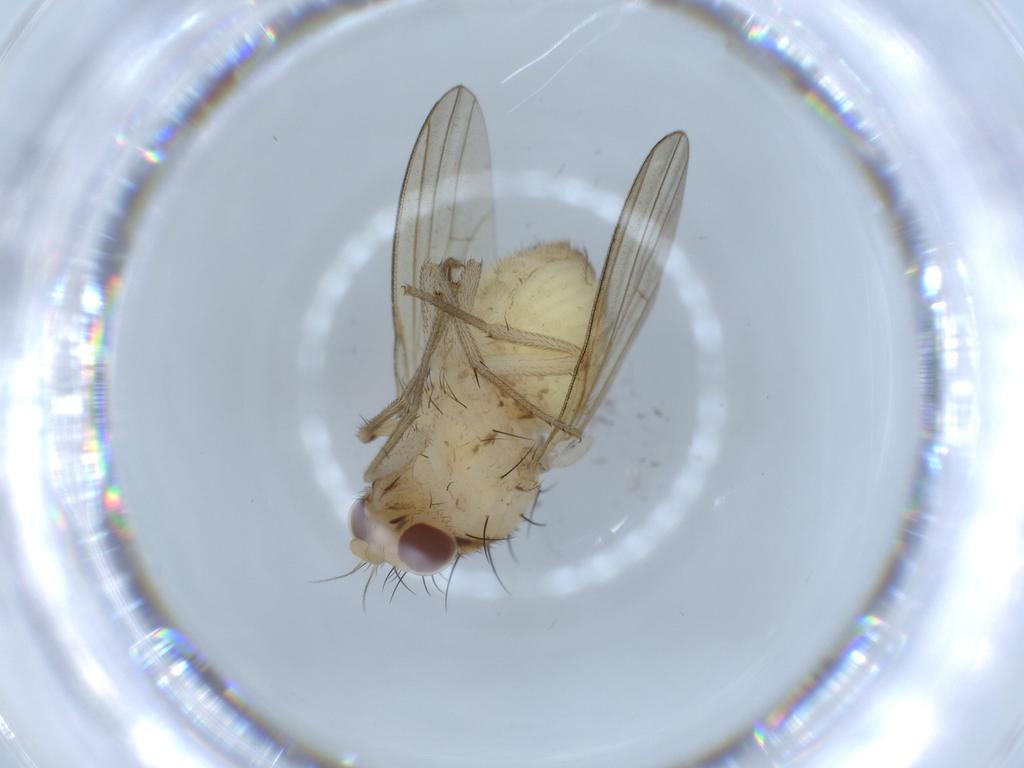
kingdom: Animalia
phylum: Arthropoda
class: Insecta
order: Diptera
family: Lauxaniidae
